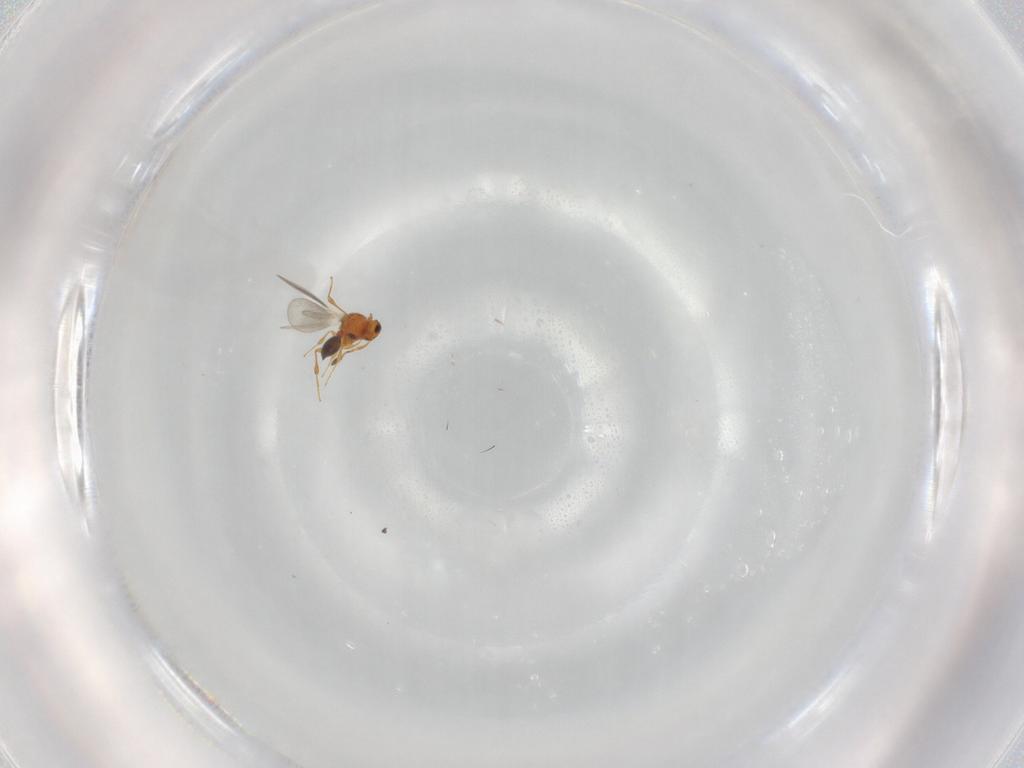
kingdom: Animalia
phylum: Arthropoda
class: Insecta
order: Hymenoptera
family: Platygastridae
